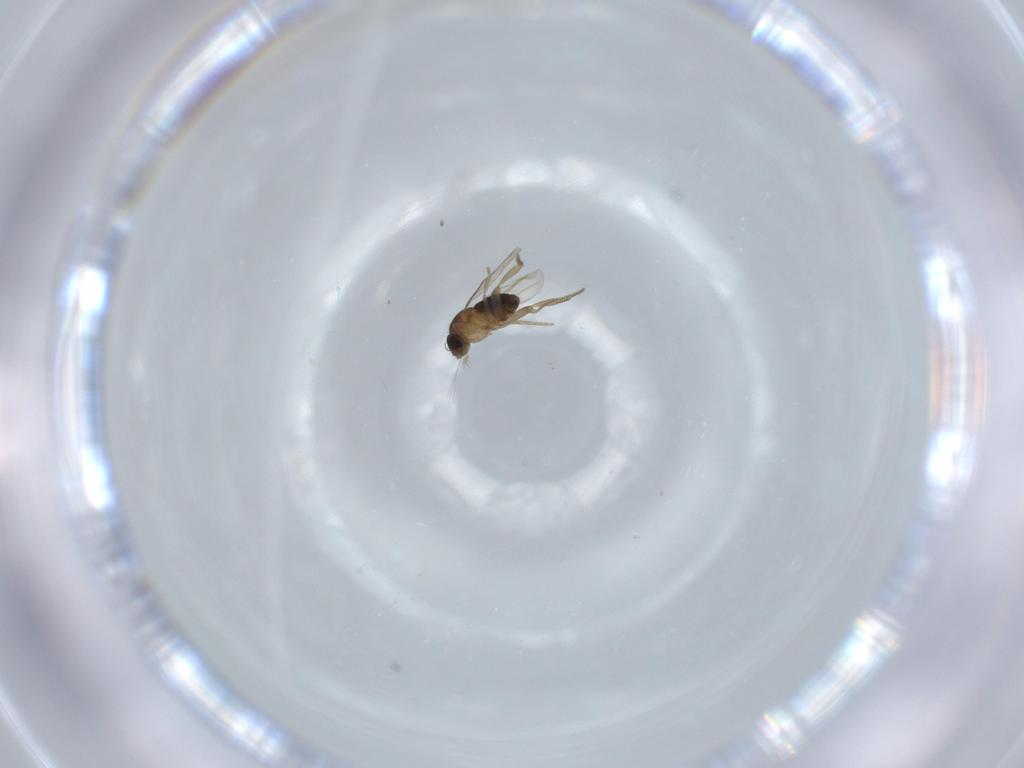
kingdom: Animalia
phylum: Arthropoda
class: Insecta
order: Diptera
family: Phoridae
